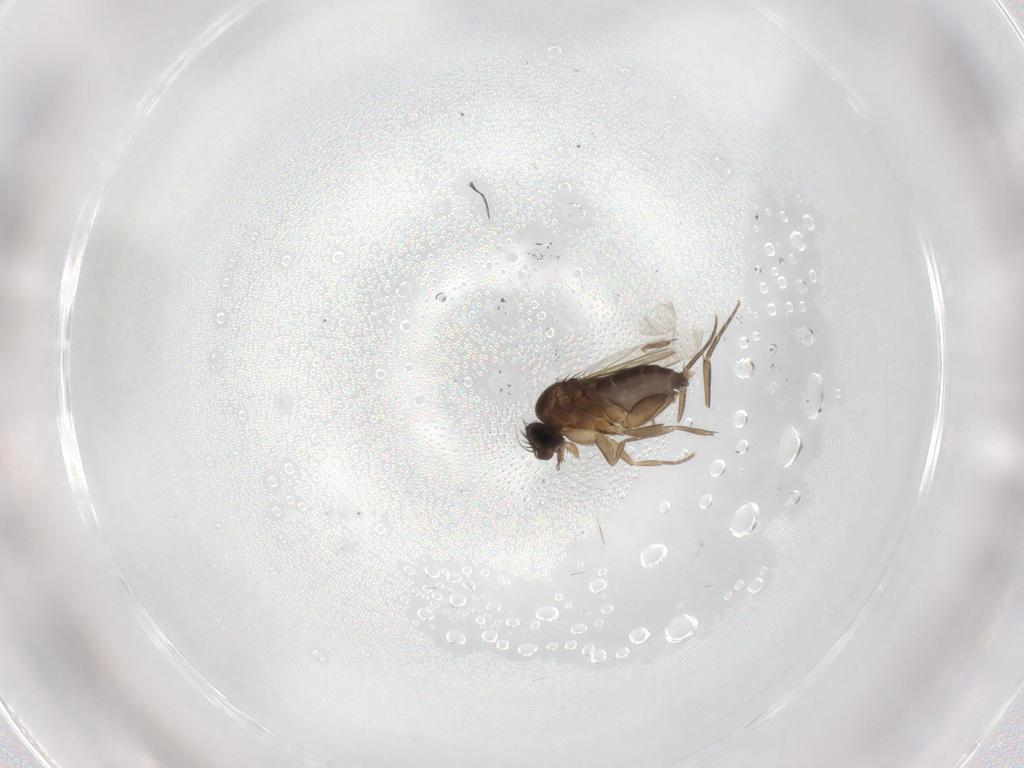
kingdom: Animalia
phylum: Arthropoda
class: Insecta
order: Diptera
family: Phoridae
